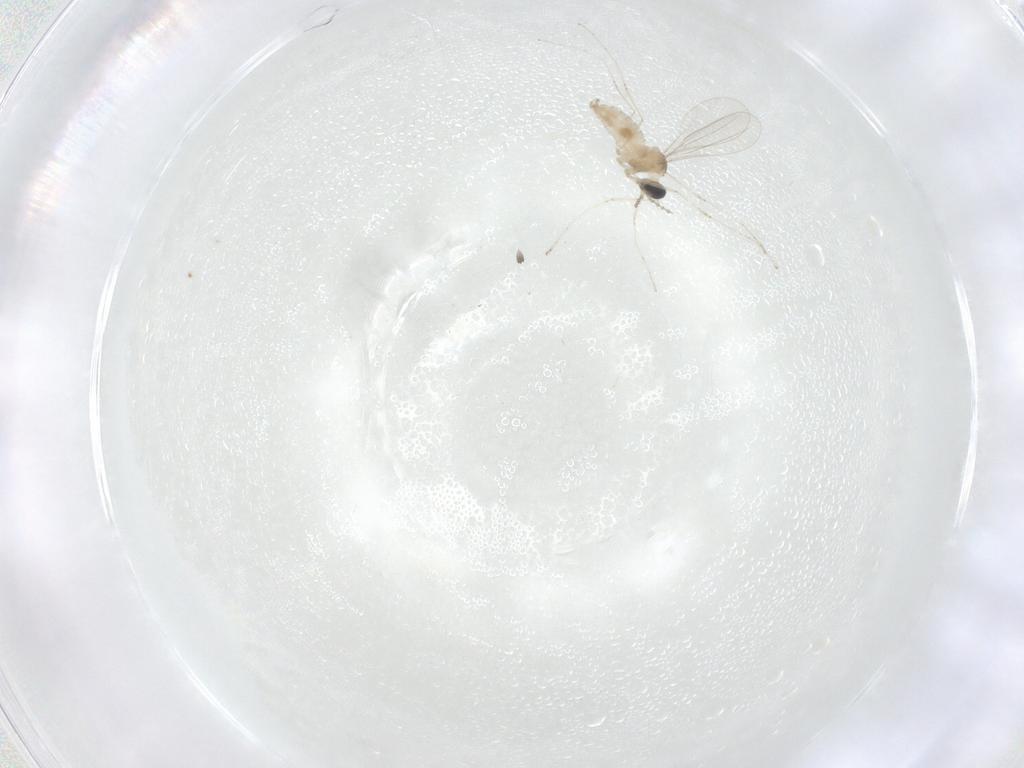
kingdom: Animalia
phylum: Arthropoda
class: Insecta
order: Diptera
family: Cecidomyiidae
